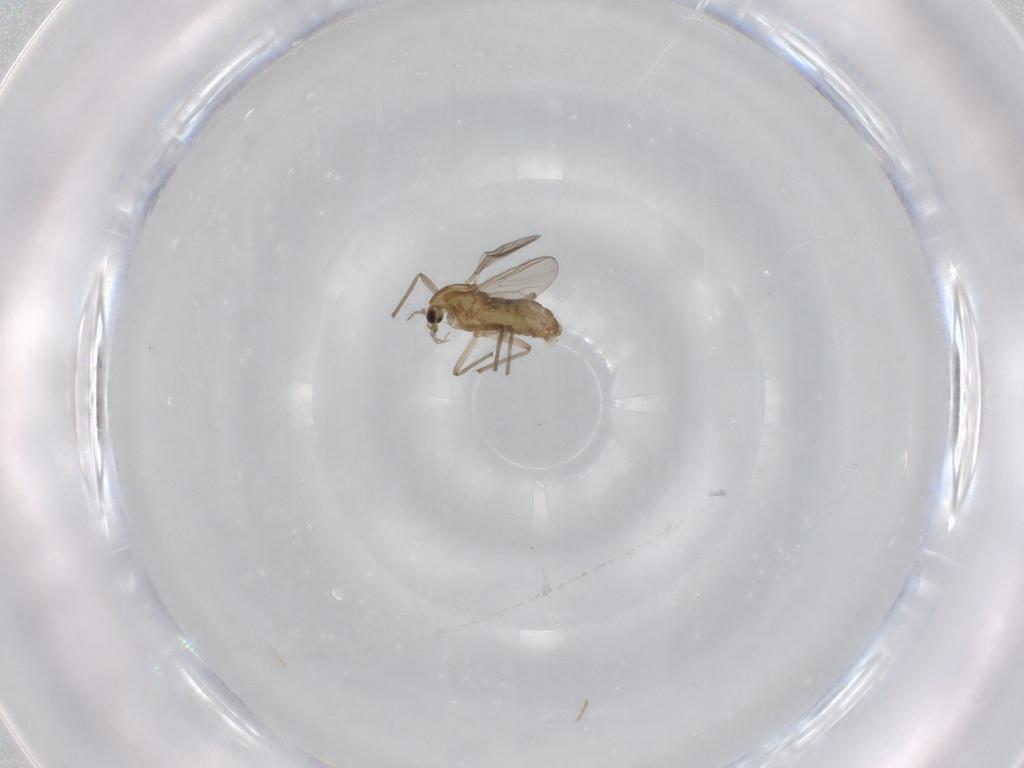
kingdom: Animalia
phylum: Arthropoda
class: Insecta
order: Diptera
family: Chironomidae
